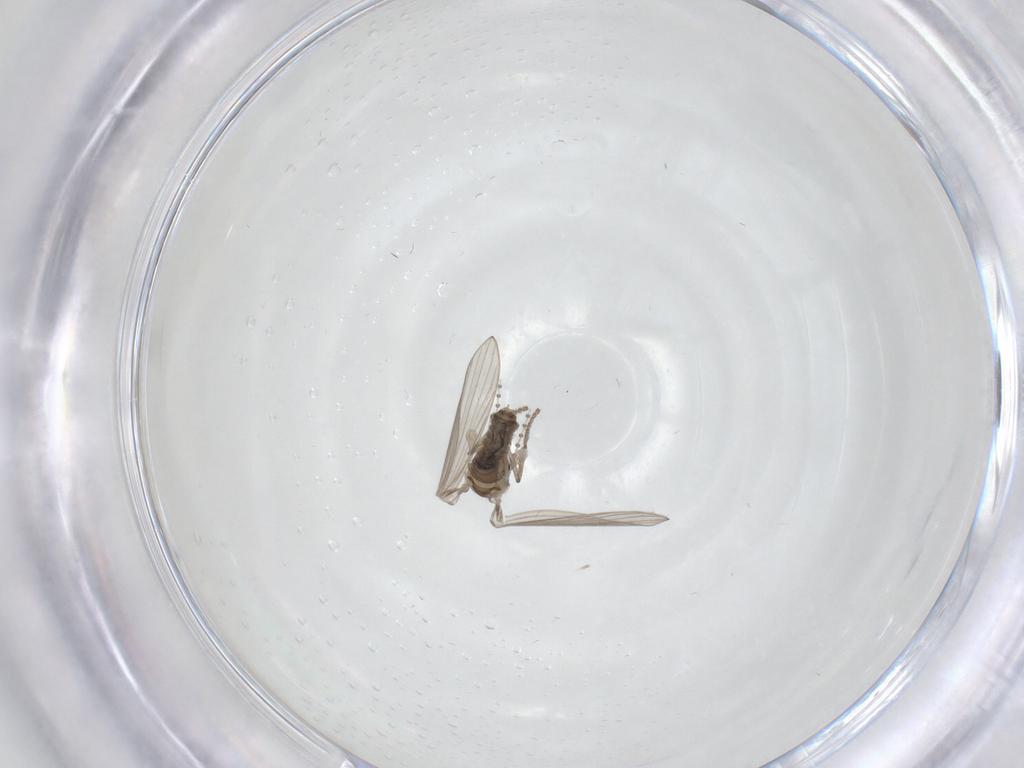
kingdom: Animalia
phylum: Arthropoda
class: Insecta
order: Diptera
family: Psychodidae
